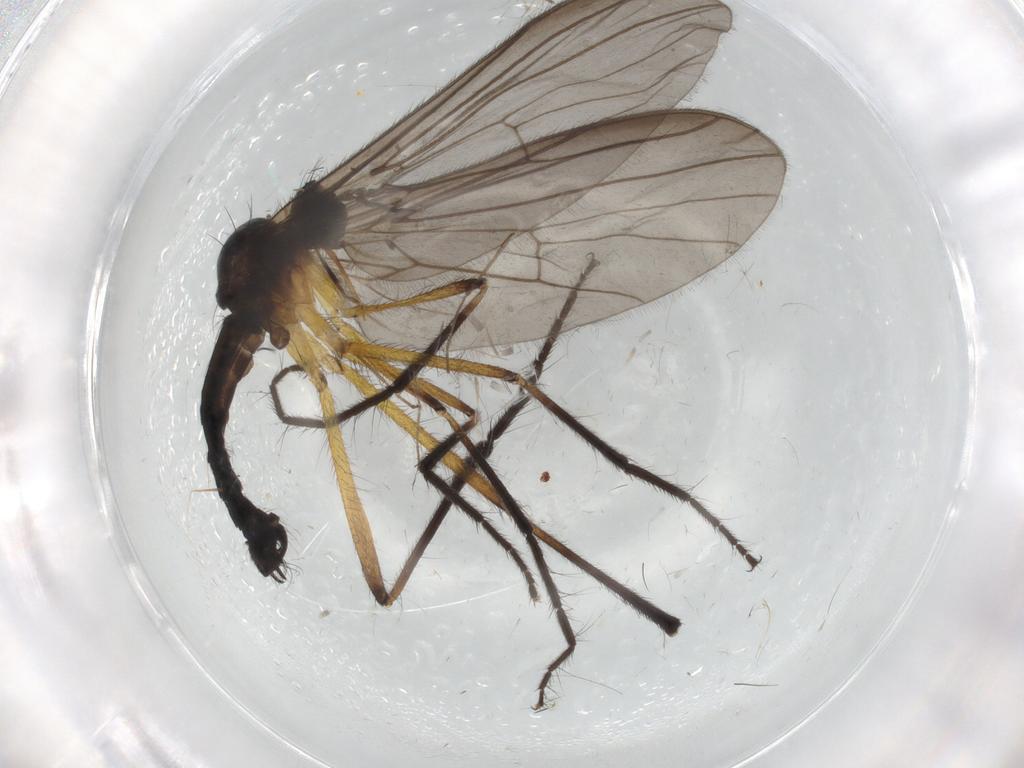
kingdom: Animalia
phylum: Arthropoda
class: Insecta
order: Diptera
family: Empididae
